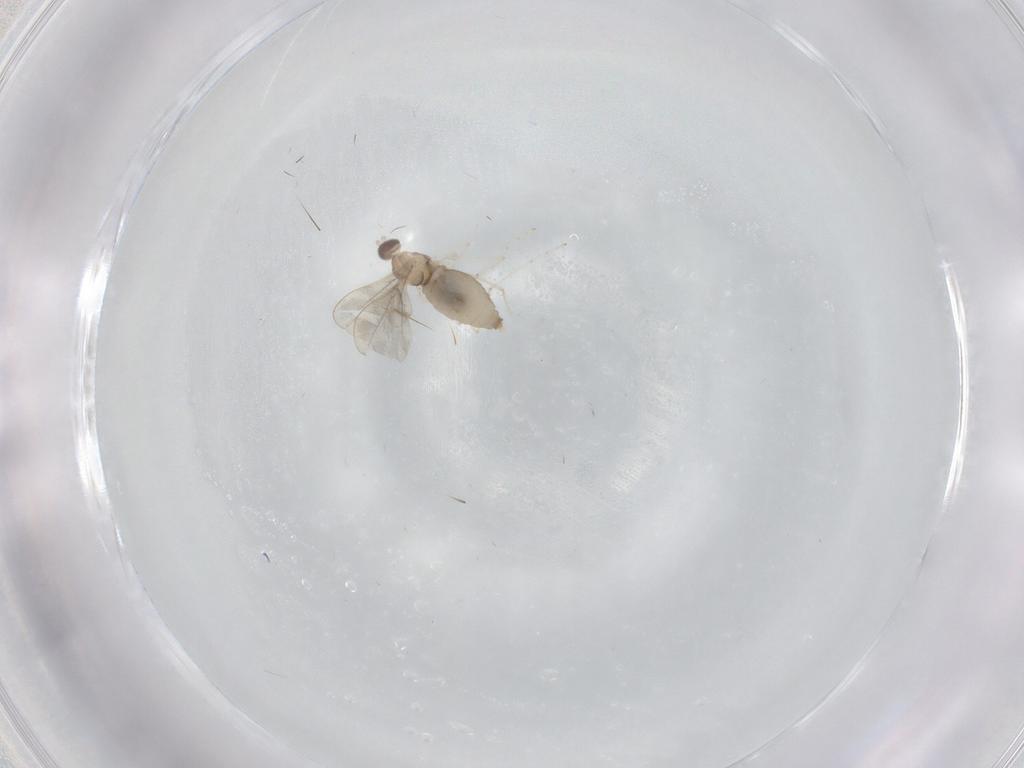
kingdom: Animalia
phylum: Arthropoda
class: Insecta
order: Diptera
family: Cecidomyiidae
